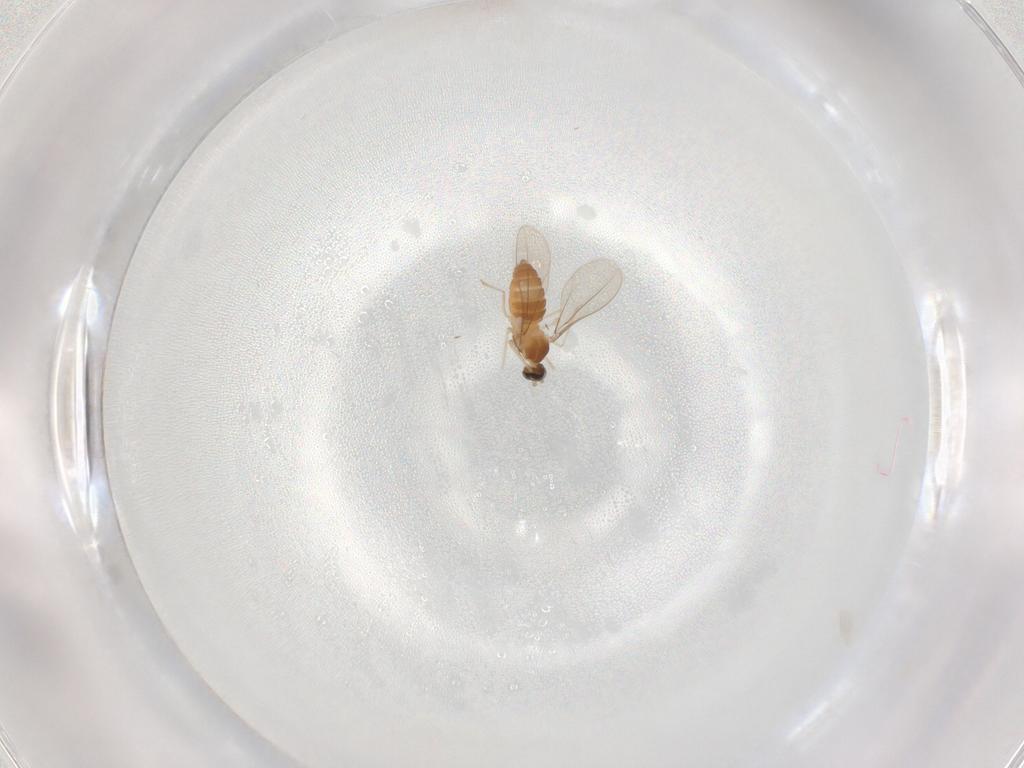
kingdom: Animalia
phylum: Arthropoda
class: Insecta
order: Diptera
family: Cecidomyiidae
